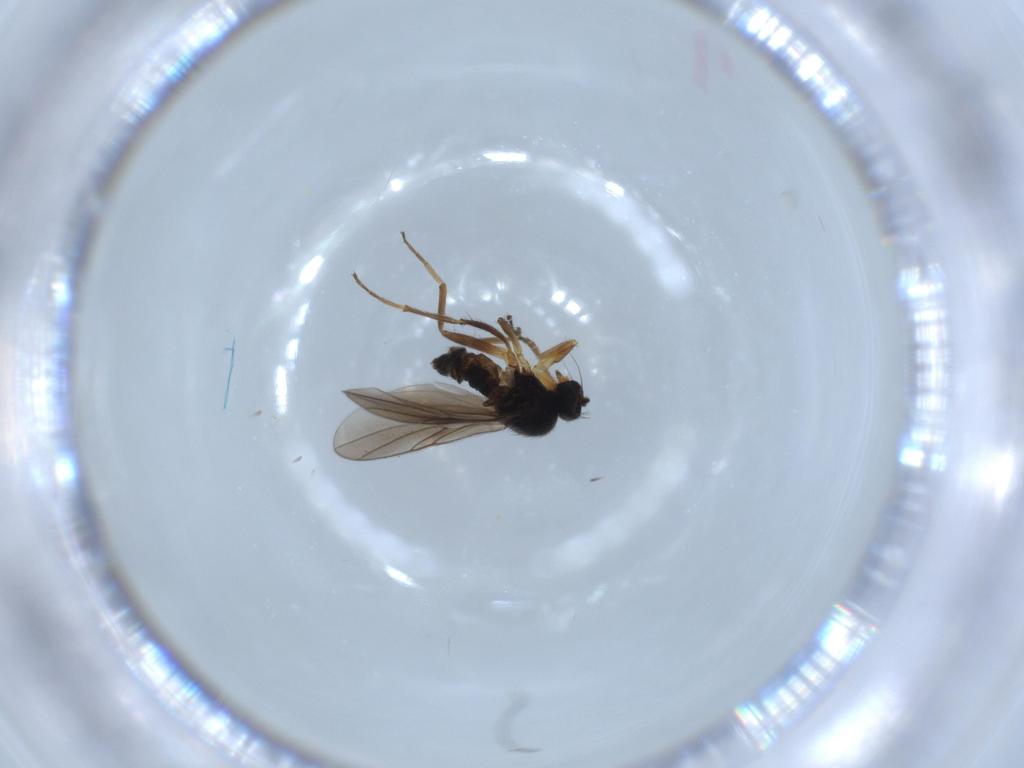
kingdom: Animalia
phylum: Arthropoda
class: Insecta
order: Diptera
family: Hybotidae
